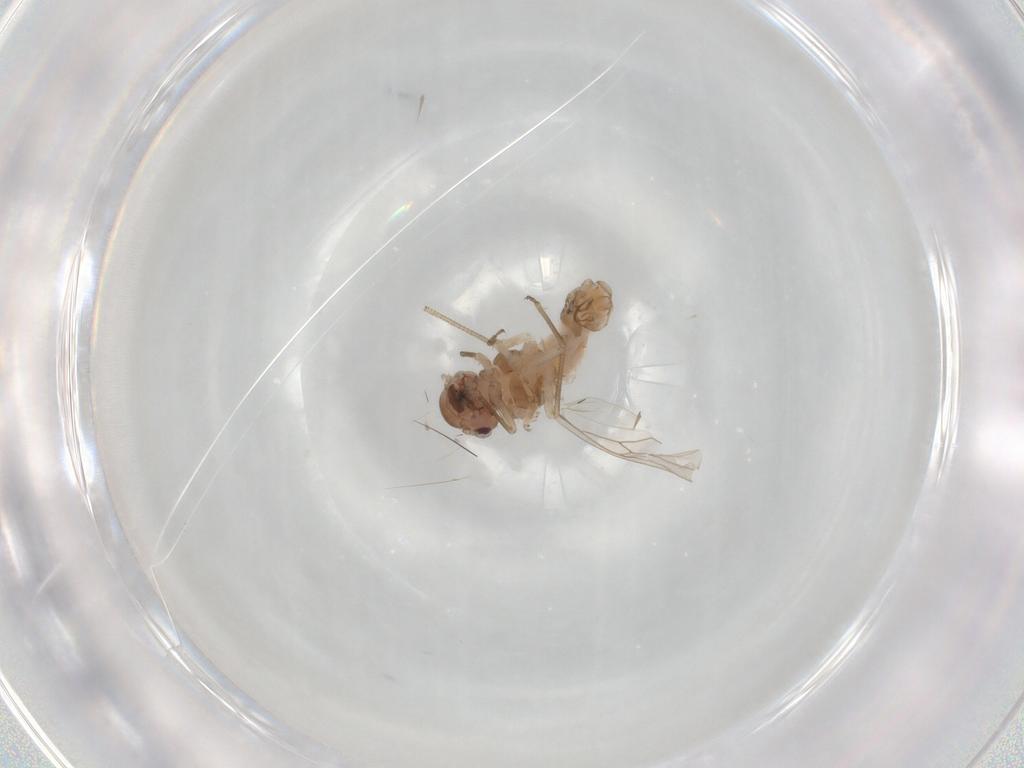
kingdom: Animalia
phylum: Arthropoda
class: Insecta
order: Psocodea
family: Peripsocidae
